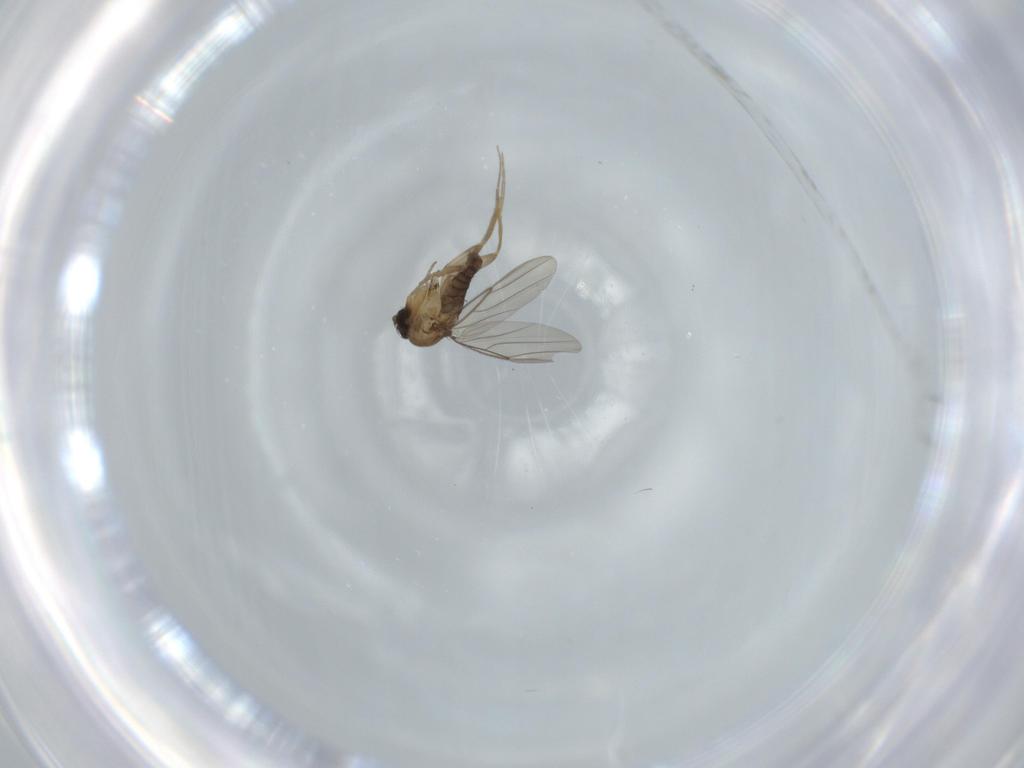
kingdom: Animalia
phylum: Arthropoda
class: Insecta
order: Diptera
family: Phoridae
